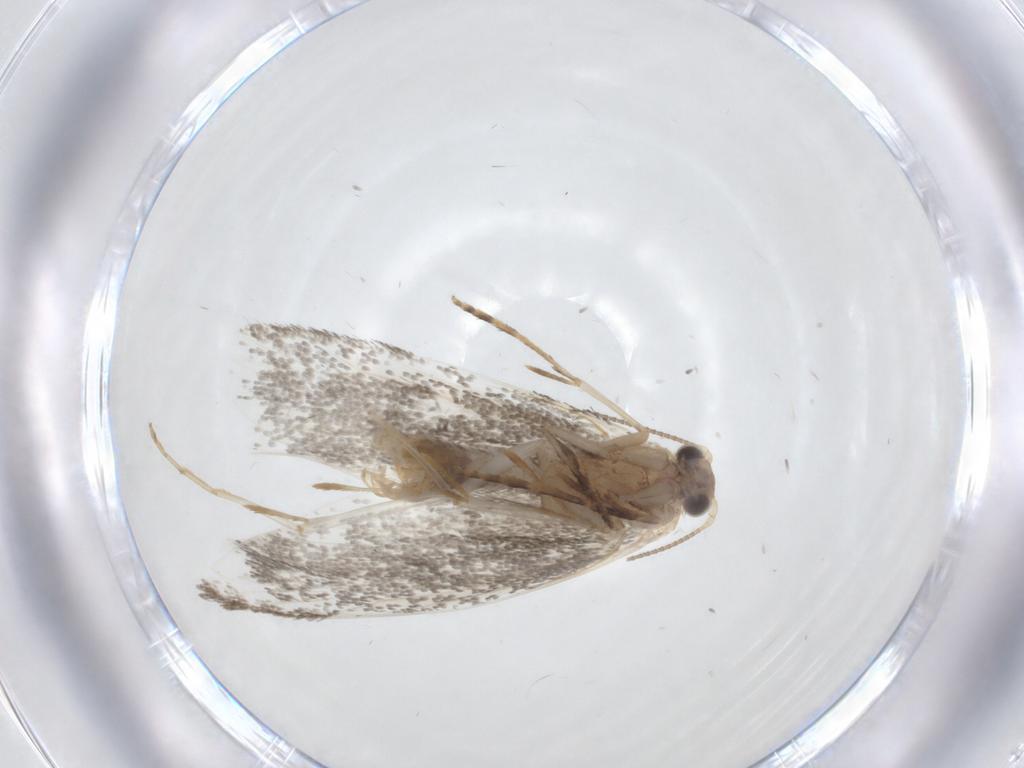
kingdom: Animalia
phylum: Arthropoda
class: Insecta
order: Lepidoptera
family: Geometridae
